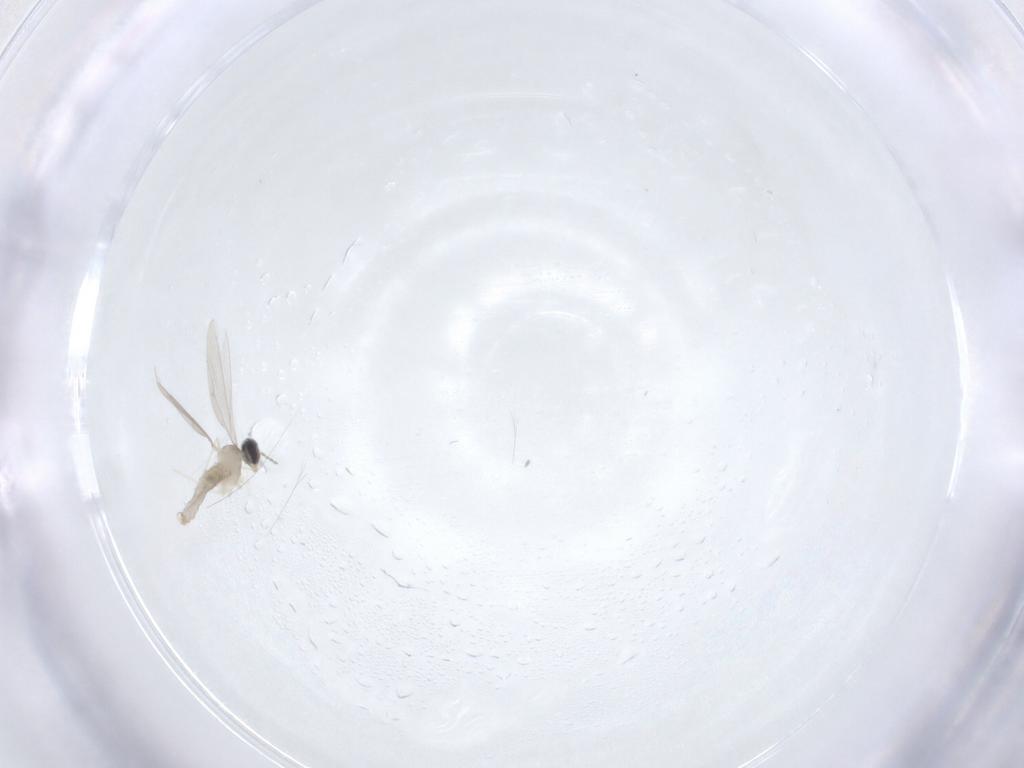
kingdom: Animalia
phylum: Arthropoda
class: Insecta
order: Diptera
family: Cecidomyiidae
